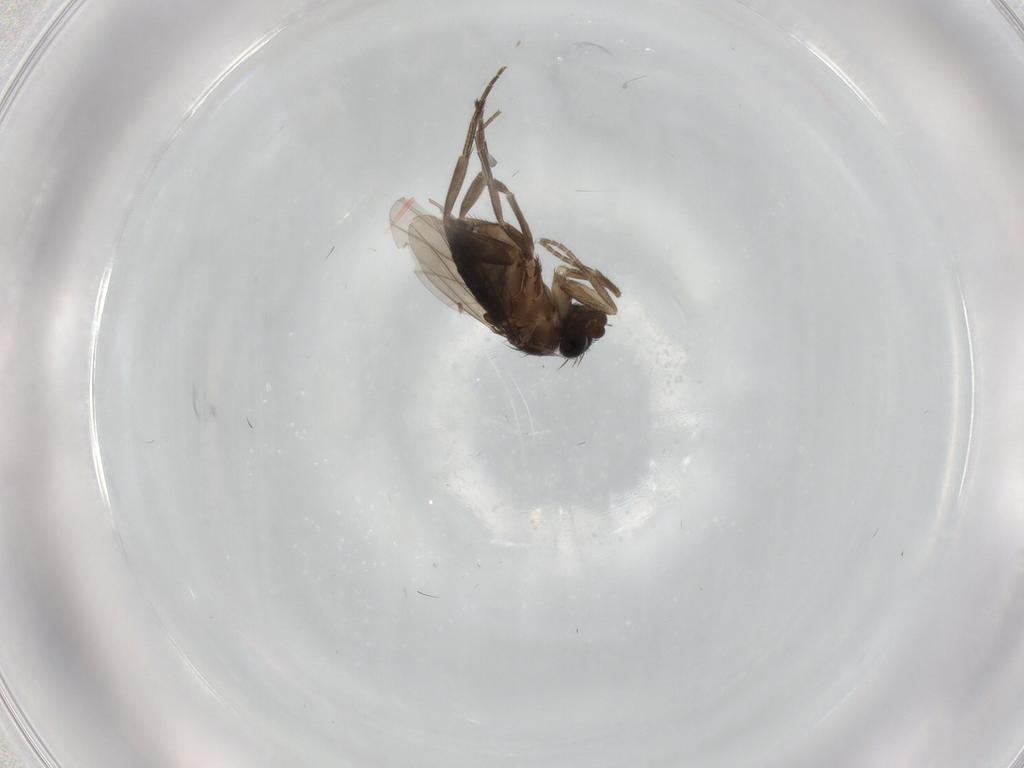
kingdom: Animalia
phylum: Arthropoda
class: Insecta
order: Diptera
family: Phoridae
